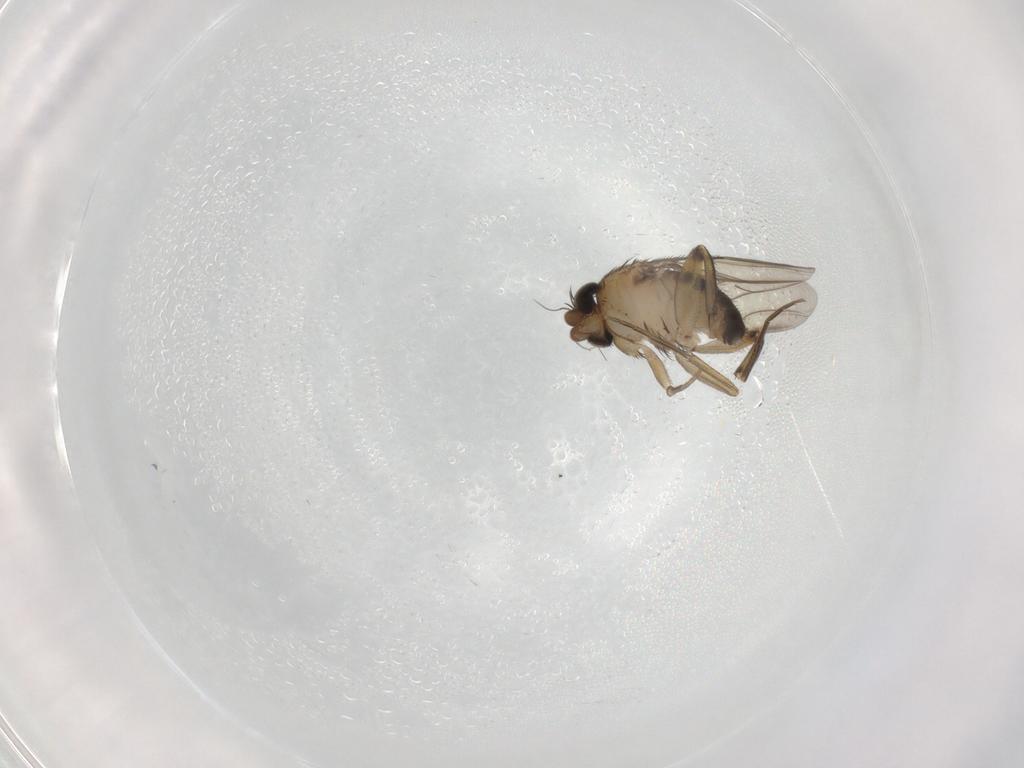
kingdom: Animalia
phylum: Arthropoda
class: Insecta
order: Diptera
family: Phoridae
